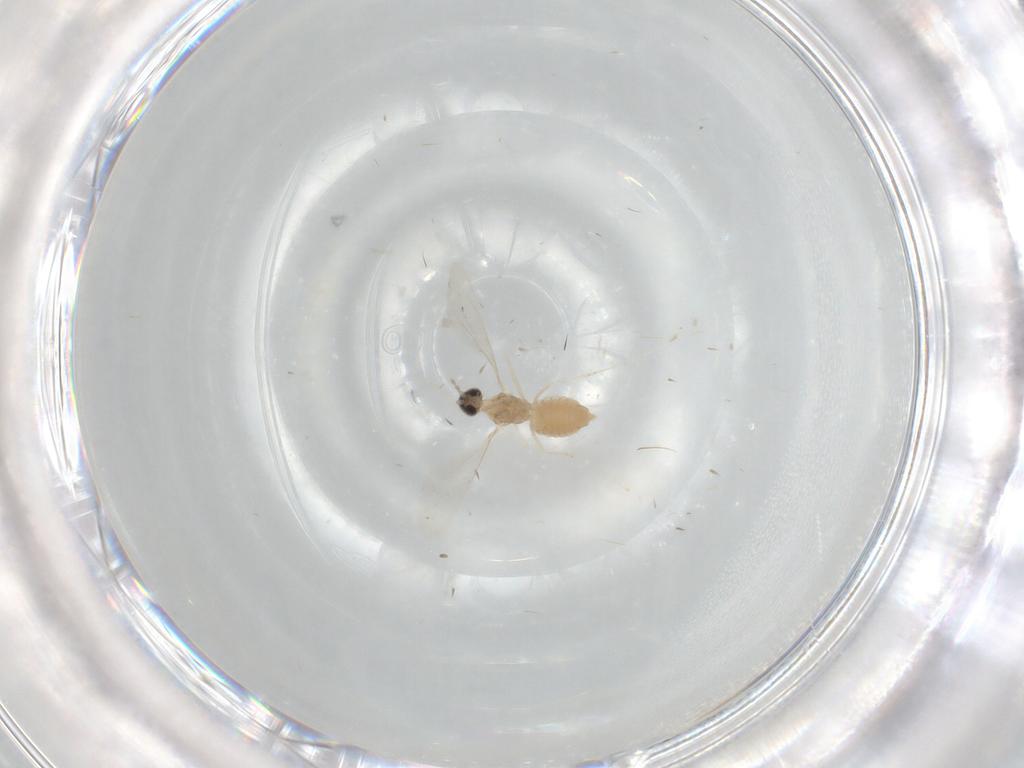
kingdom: Animalia
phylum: Arthropoda
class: Insecta
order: Diptera
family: Cecidomyiidae
